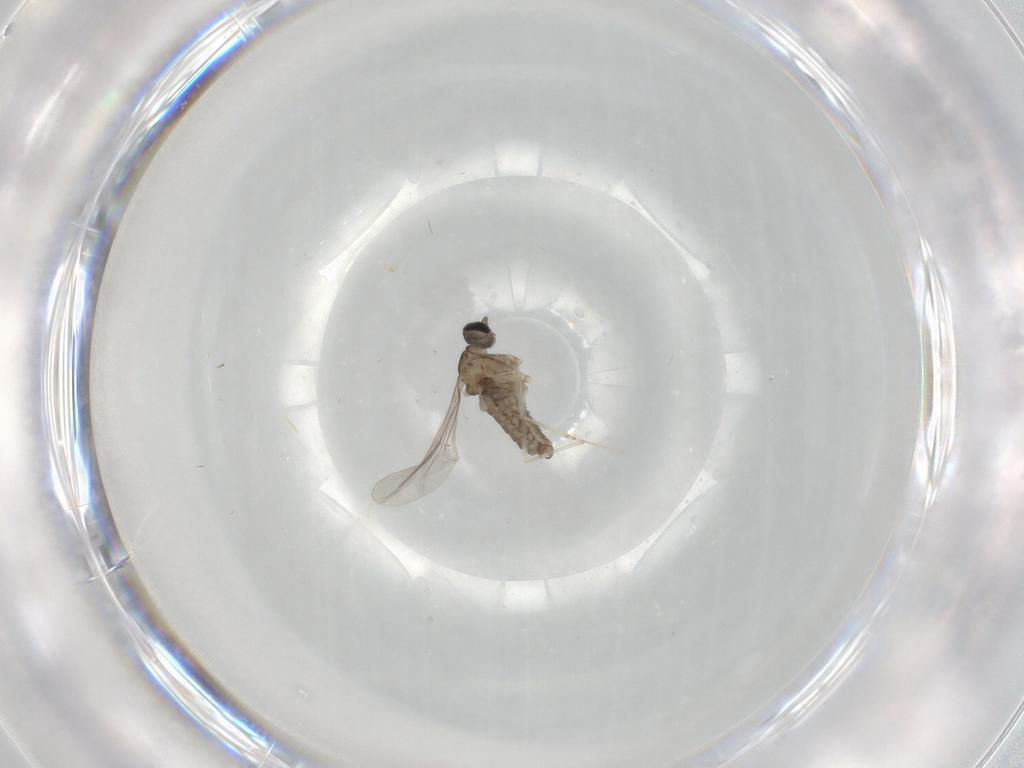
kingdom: Animalia
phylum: Arthropoda
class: Insecta
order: Diptera
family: Cecidomyiidae
